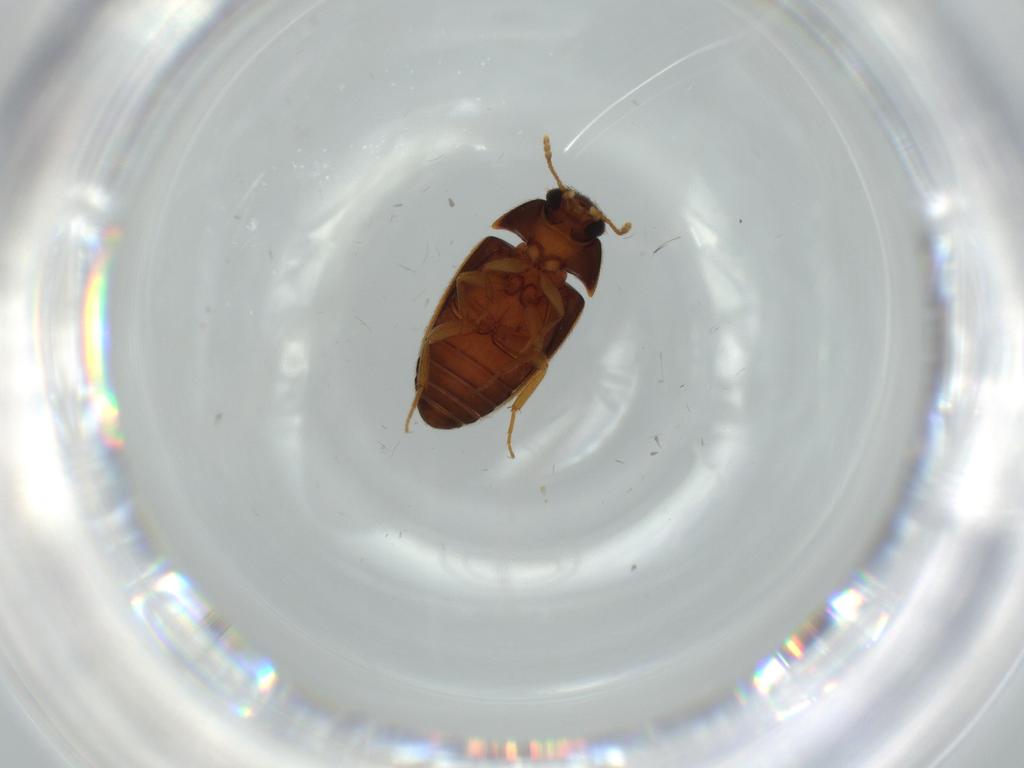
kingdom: Animalia
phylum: Arthropoda
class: Insecta
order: Coleoptera
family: Mycetophagidae
